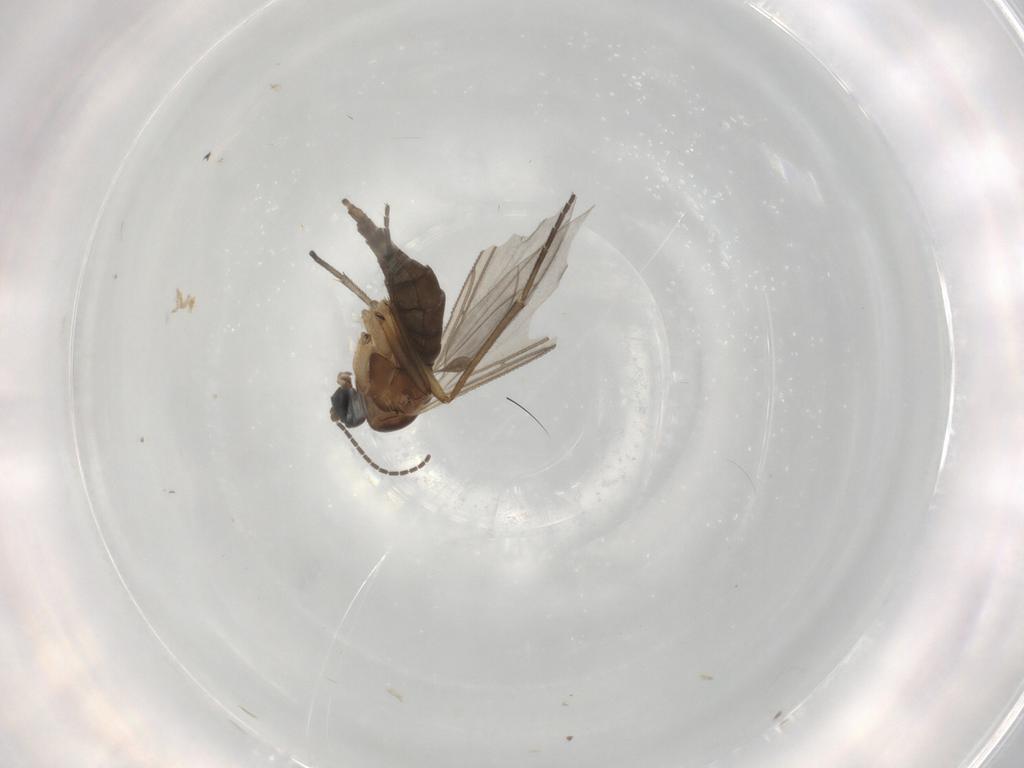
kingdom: Animalia
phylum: Arthropoda
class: Insecta
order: Diptera
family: Sciaridae
